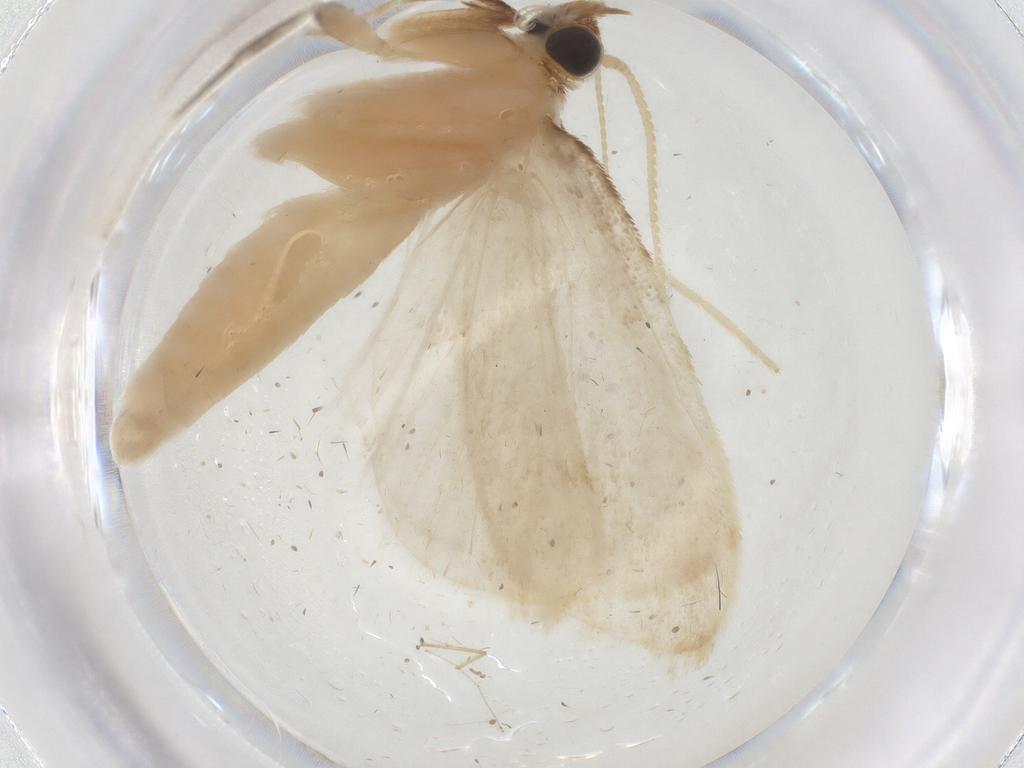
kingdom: Animalia
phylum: Arthropoda
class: Insecta
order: Lepidoptera
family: Crambidae
